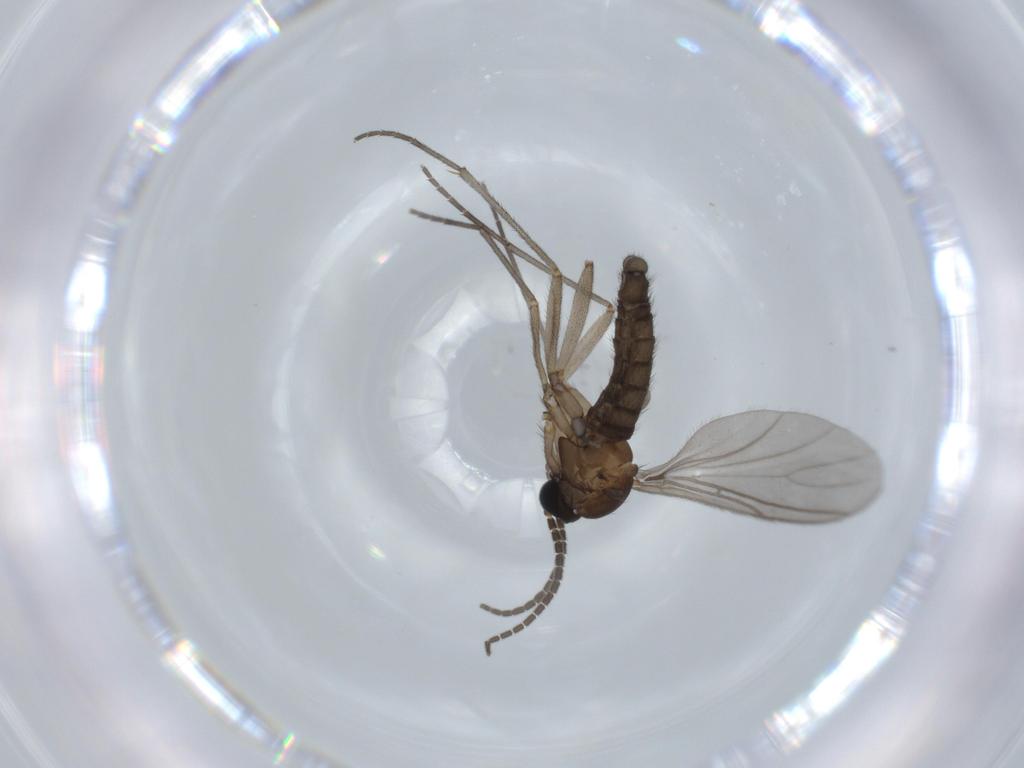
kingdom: Animalia
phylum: Arthropoda
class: Insecta
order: Diptera
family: Sciaridae
